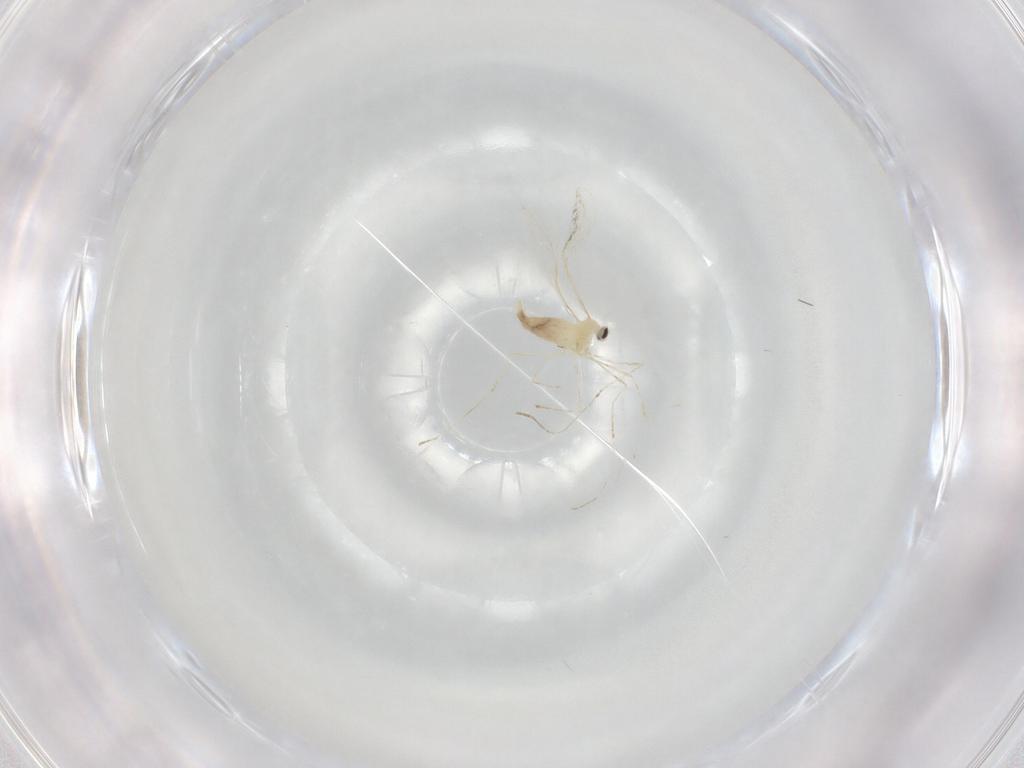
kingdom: Animalia
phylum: Arthropoda
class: Insecta
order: Diptera
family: Cecidomyiidae
